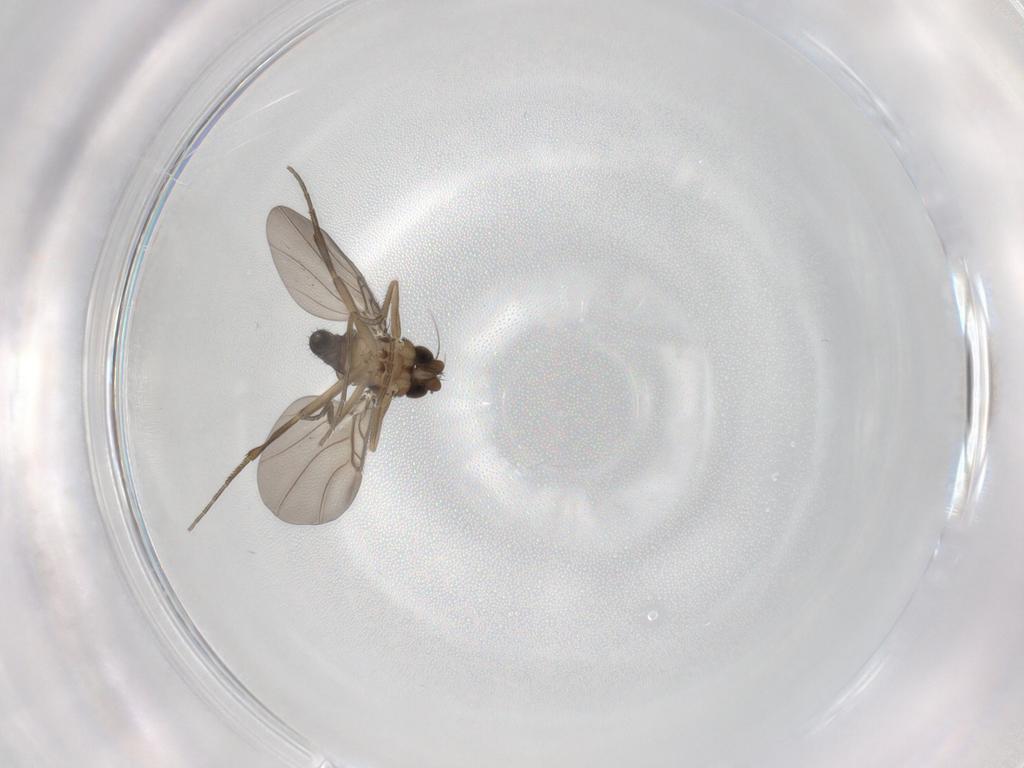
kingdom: Animalia
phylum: Arthropoda
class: Insecta
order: Diptera
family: Phoridae
